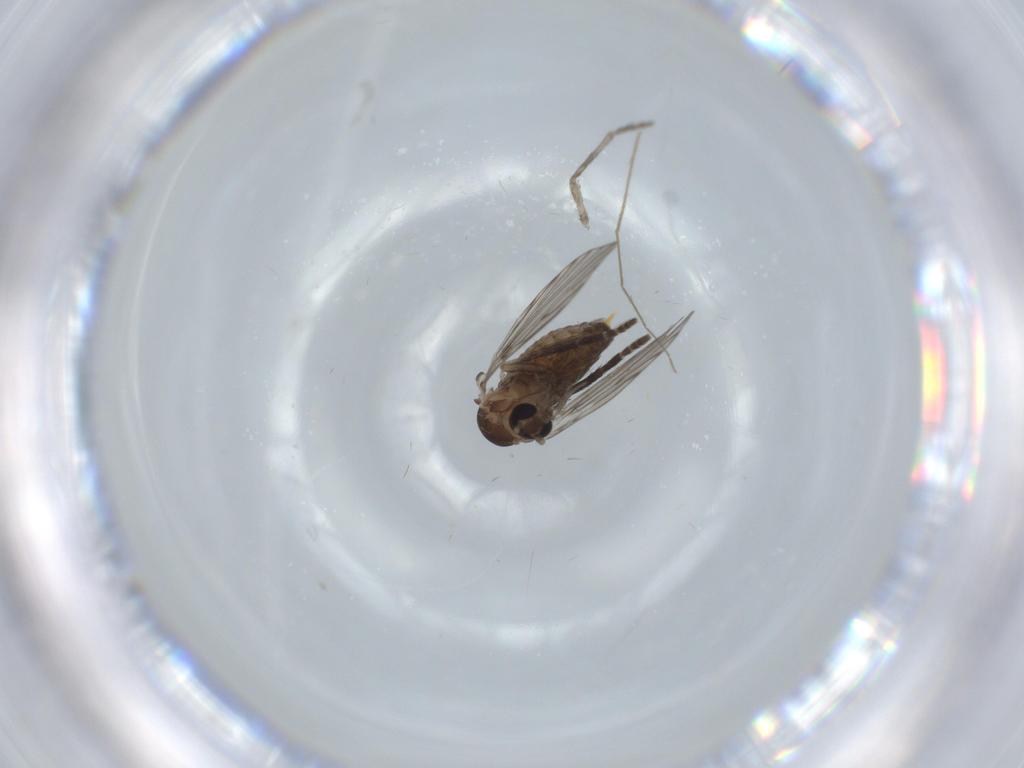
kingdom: Animalia
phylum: Arthropoda
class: Insecta
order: Diptera
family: Psychodidae
